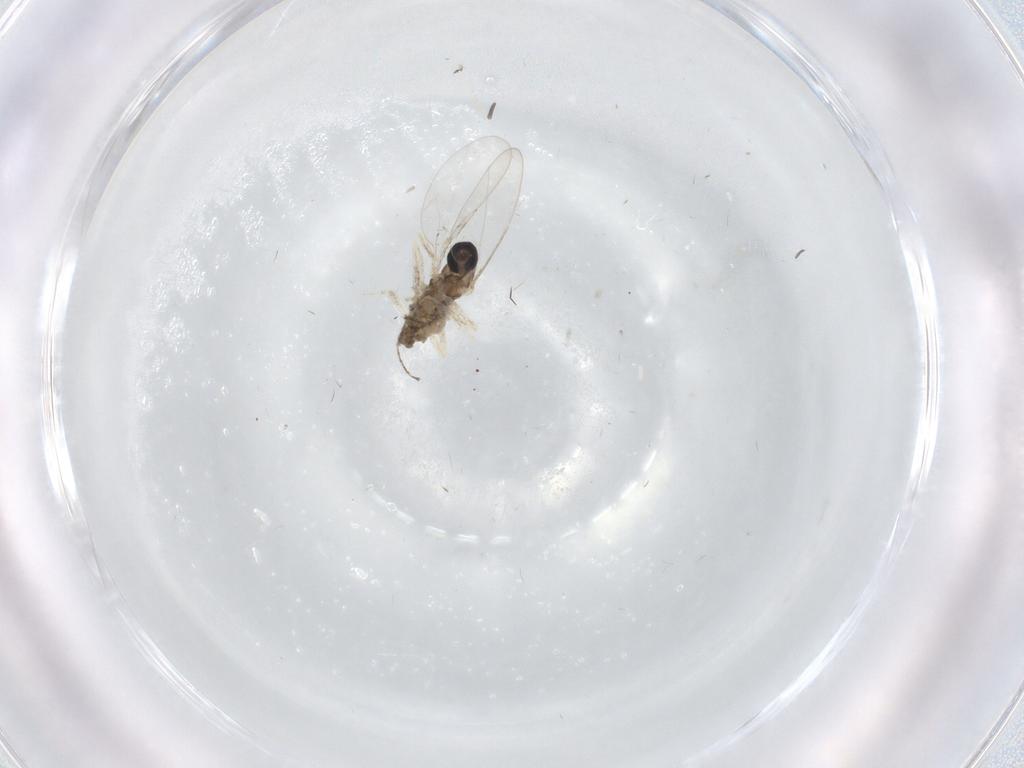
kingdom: Animalia
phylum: Arthropoda
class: Insecta
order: Diptera
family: Cecidomyiidae
